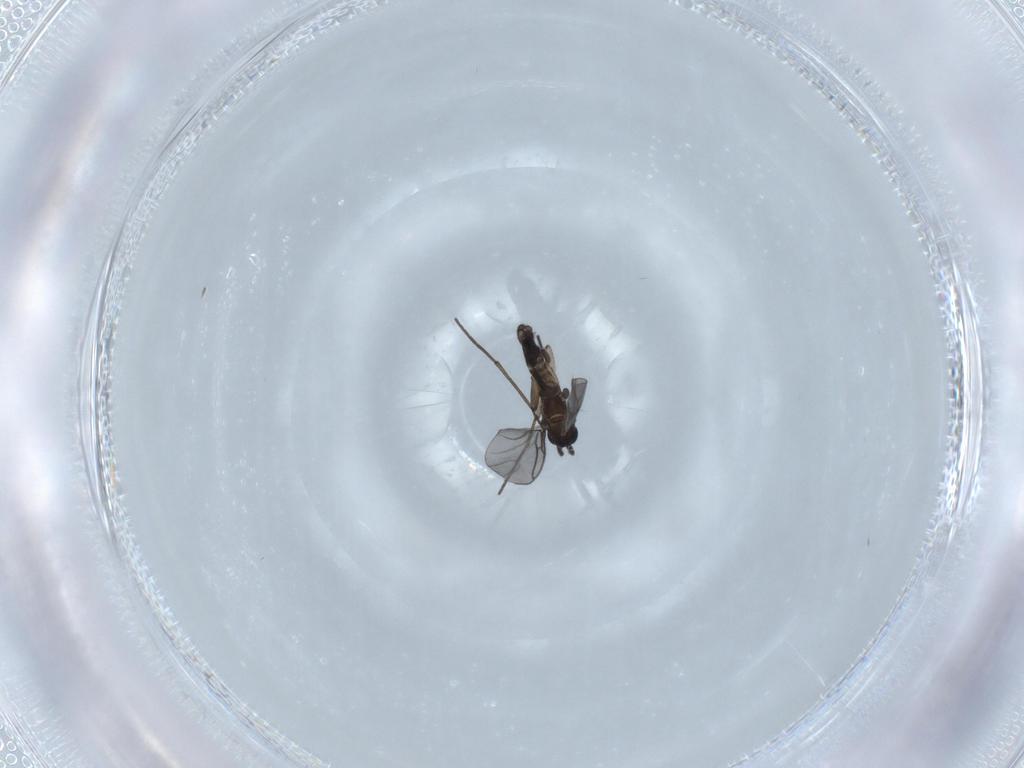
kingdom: Animalia
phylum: Arthropoda
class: Insecta
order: Diptera
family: Sciaridae
